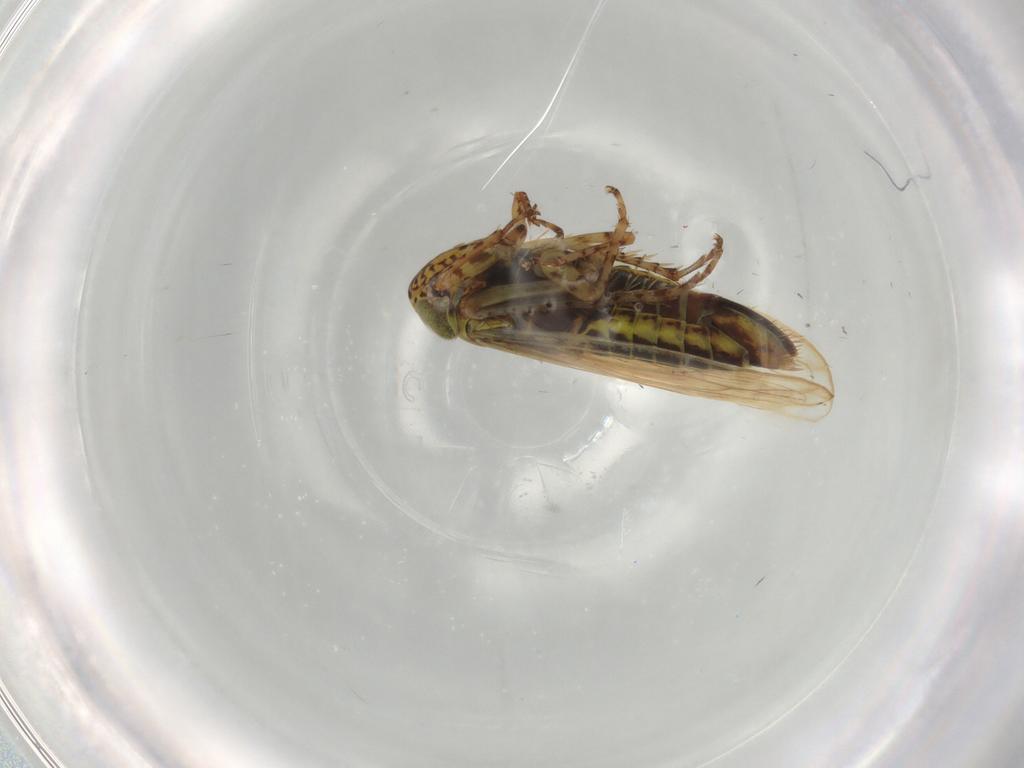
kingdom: Animalia
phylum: Arthropoda
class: Insecta
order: Hemiptera
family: Cicadellidae
